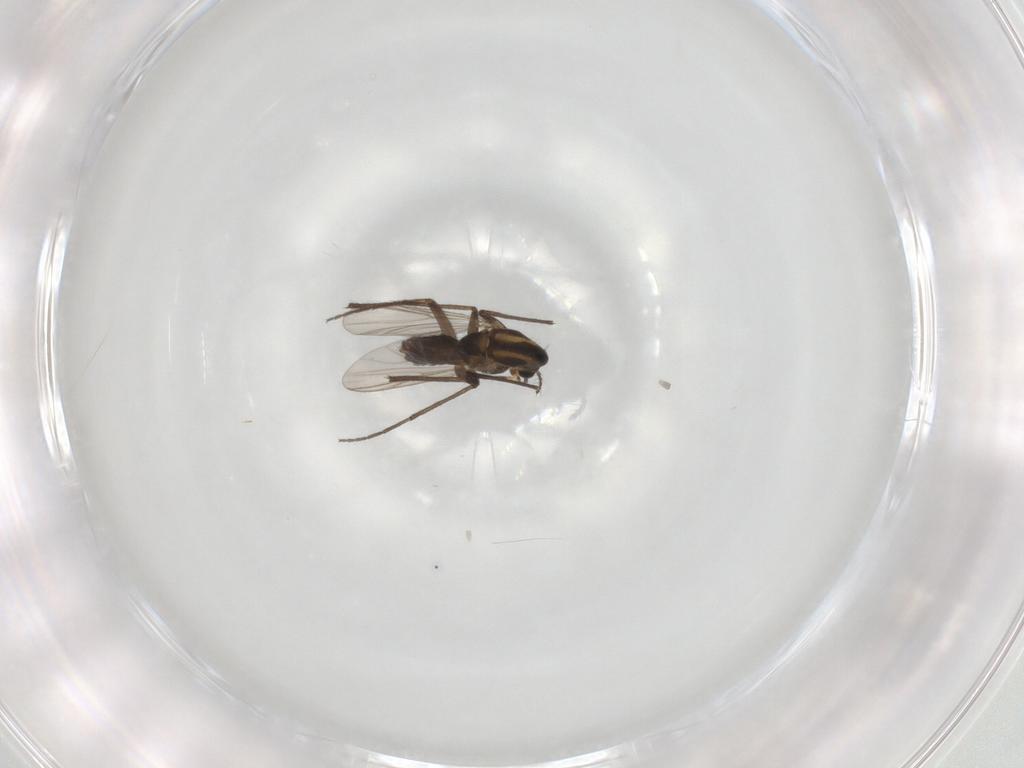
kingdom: Animalia
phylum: Arthropoda
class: Insecta
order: Diptera
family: Chironomidae
